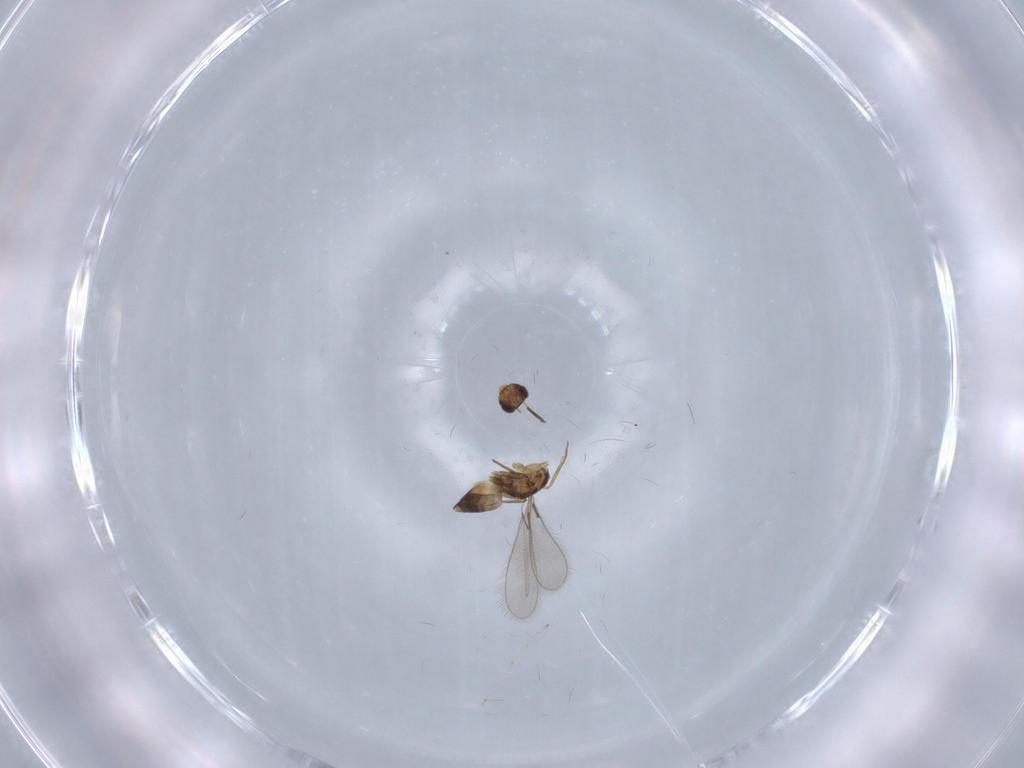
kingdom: Animalia
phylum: Arthropoda
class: Insecta
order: Hymenoptera
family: Mymaridae
